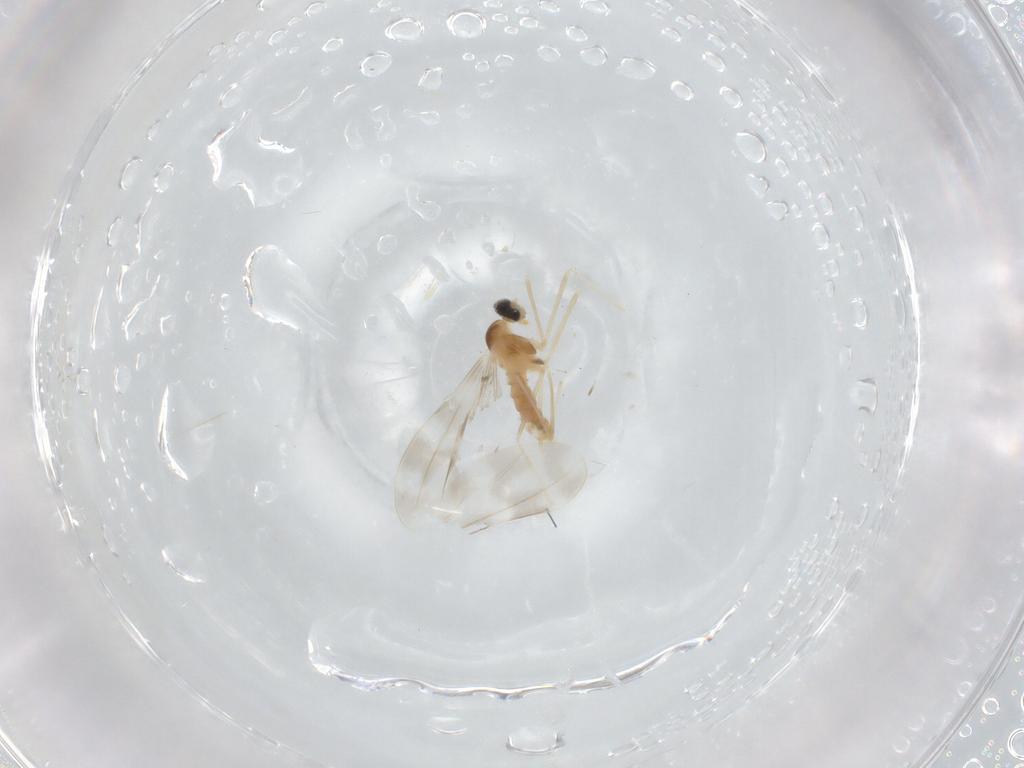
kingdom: Animalia
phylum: Arthropoda
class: Insecta
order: Diptera
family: Cecidomyiidae
